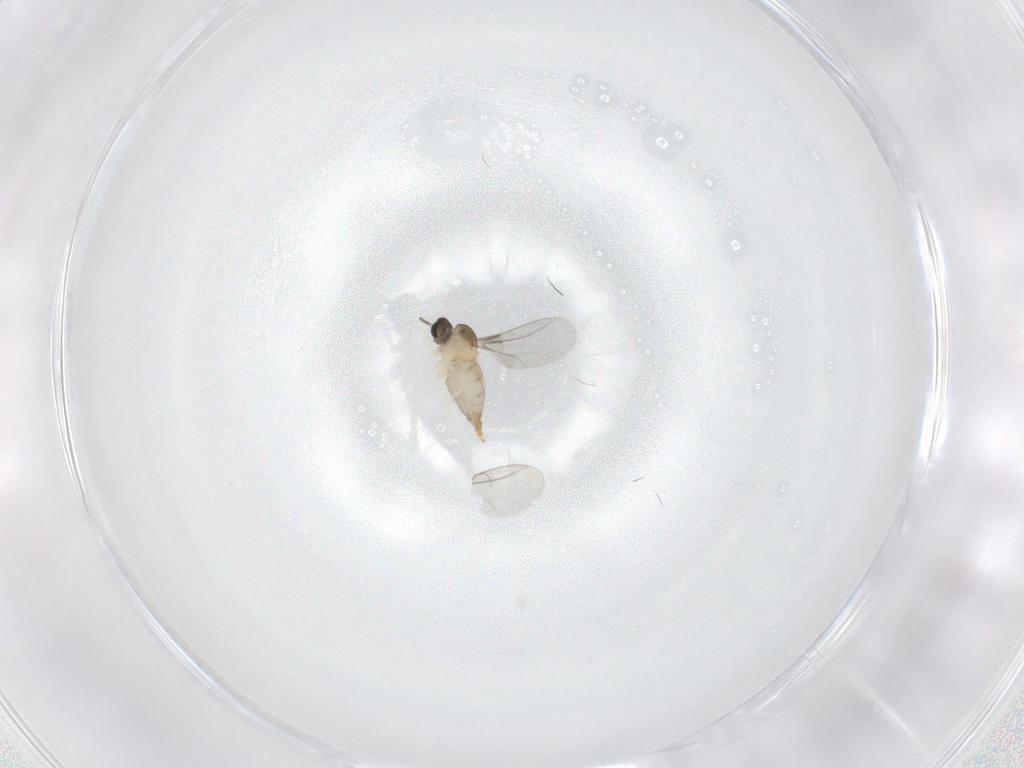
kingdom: Animalia
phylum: Arthropoda
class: Insecta
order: Diptera
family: Cecidomyiidae
